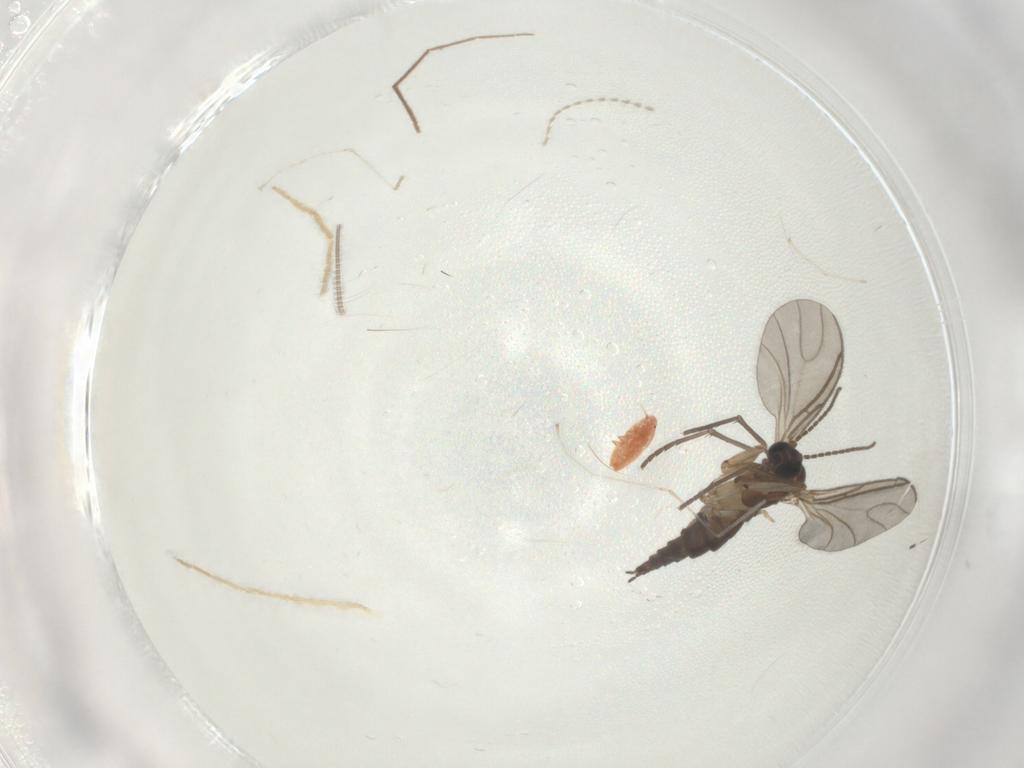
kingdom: Animalia
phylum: Arthropoda
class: Insecta
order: Diptera
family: Sciaridae
